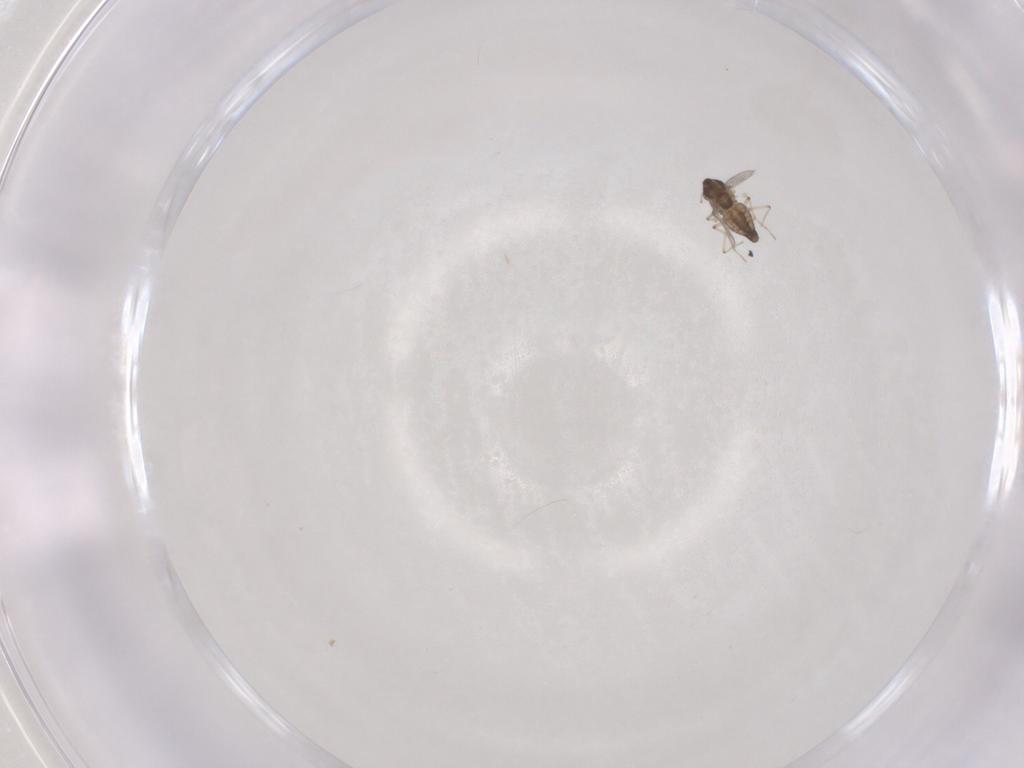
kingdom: Animalia
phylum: Arthropoda
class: Insecta
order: Diptera
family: Chironomidae
